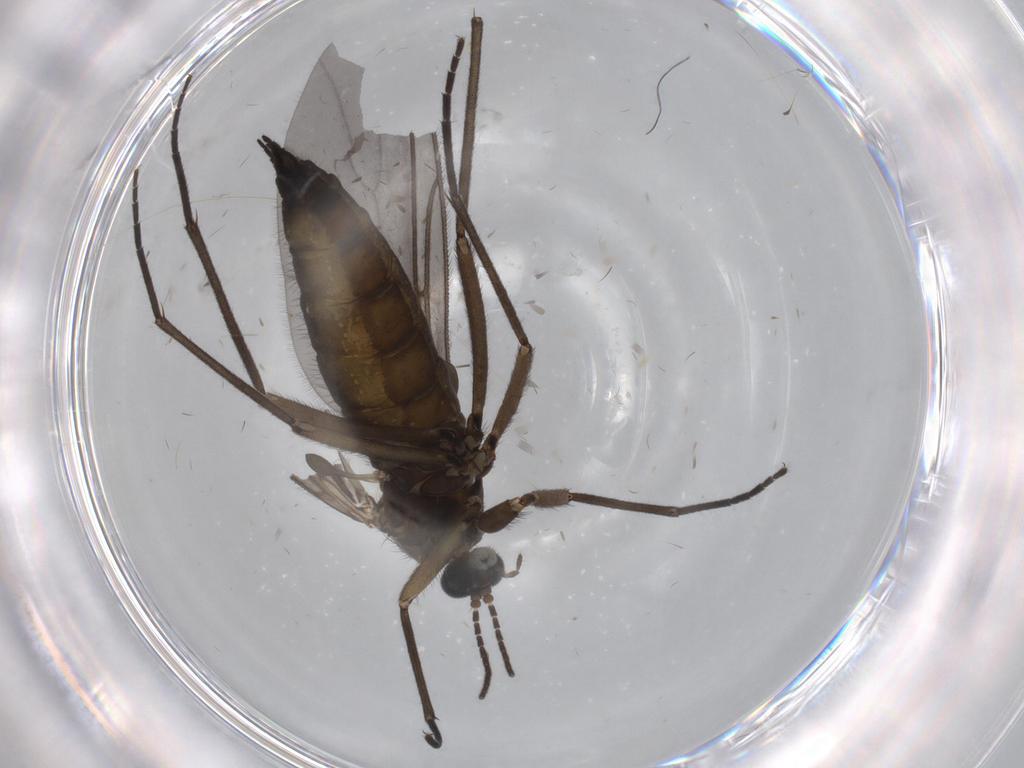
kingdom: Animalia
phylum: Arthropoda
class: Insecta
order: Diptera
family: Sciaridae
